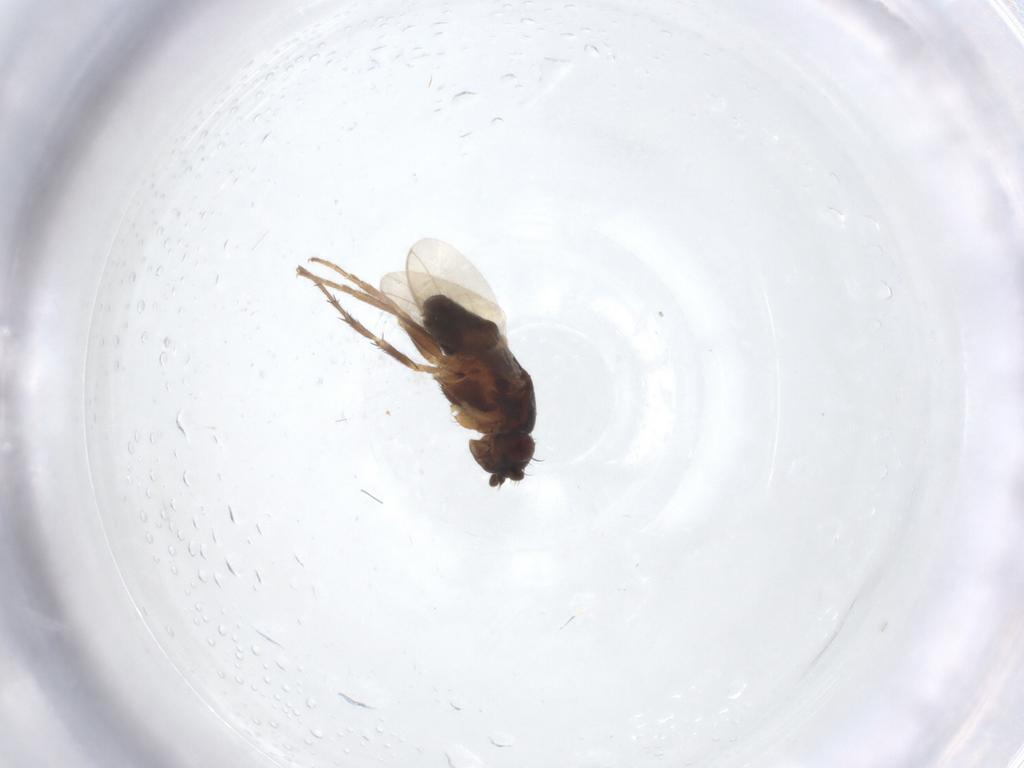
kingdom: Animalia
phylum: Arthropoda
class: Insecta
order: Diptera
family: Sphaeroceridae
